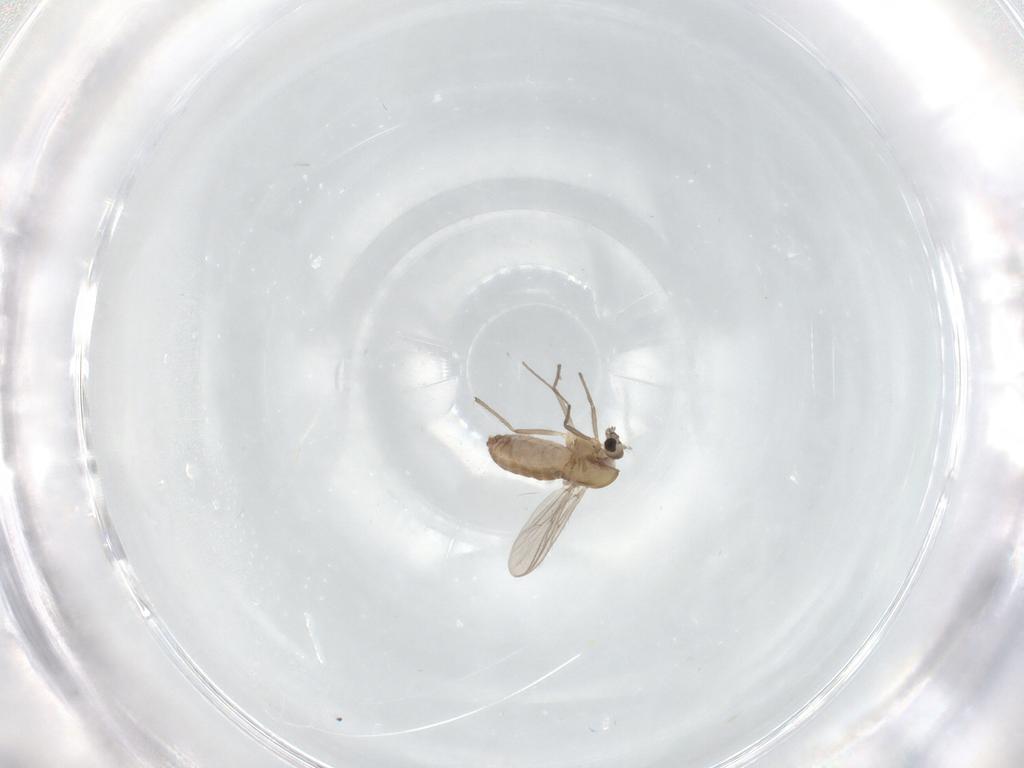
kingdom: Animalia
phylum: Arthropoda
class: Insecta
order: Diptera
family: Chironomidae
